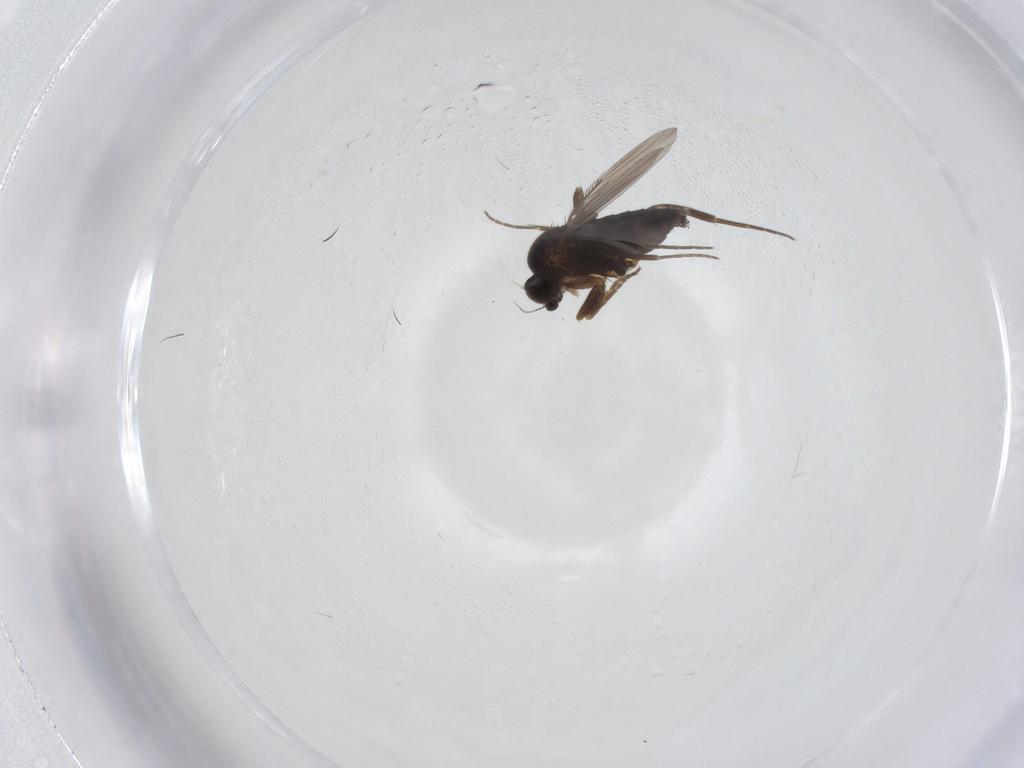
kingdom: Animalia
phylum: Arthropoda
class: Insecta
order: Diptera
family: Phoridae
